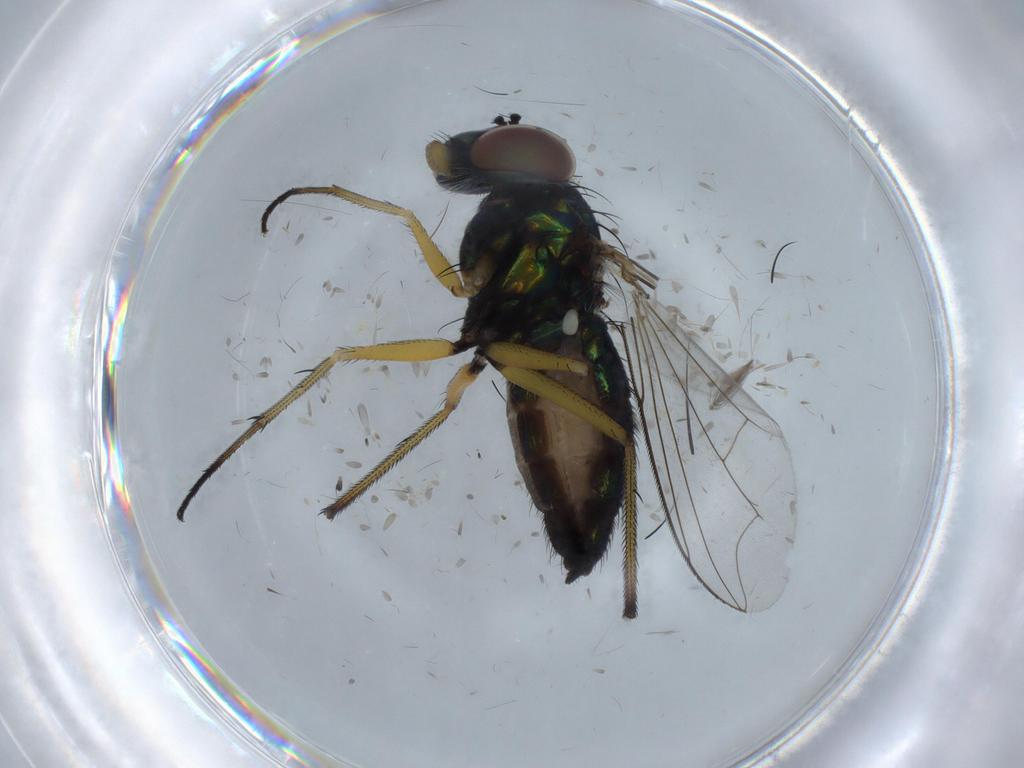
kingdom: Animalia
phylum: Arthropoda
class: Insecta
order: Diptera
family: Dolichopodidae
